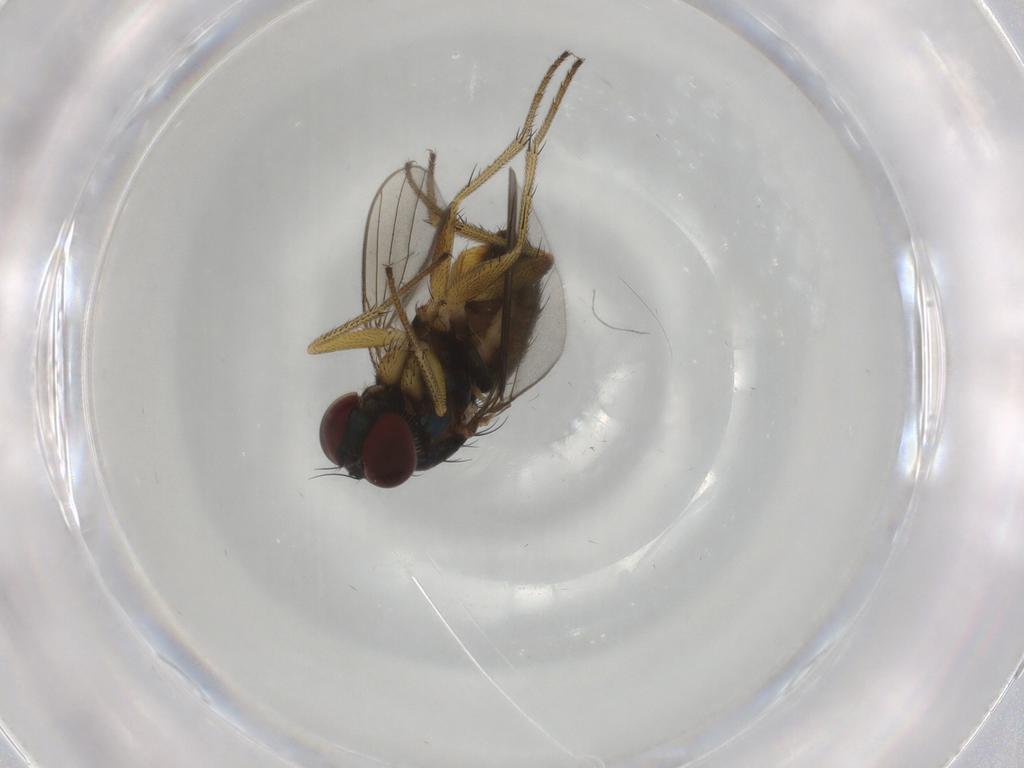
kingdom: Animalia
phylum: Arthropoda
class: Insecta
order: Diptera
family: Dolichopodidae
